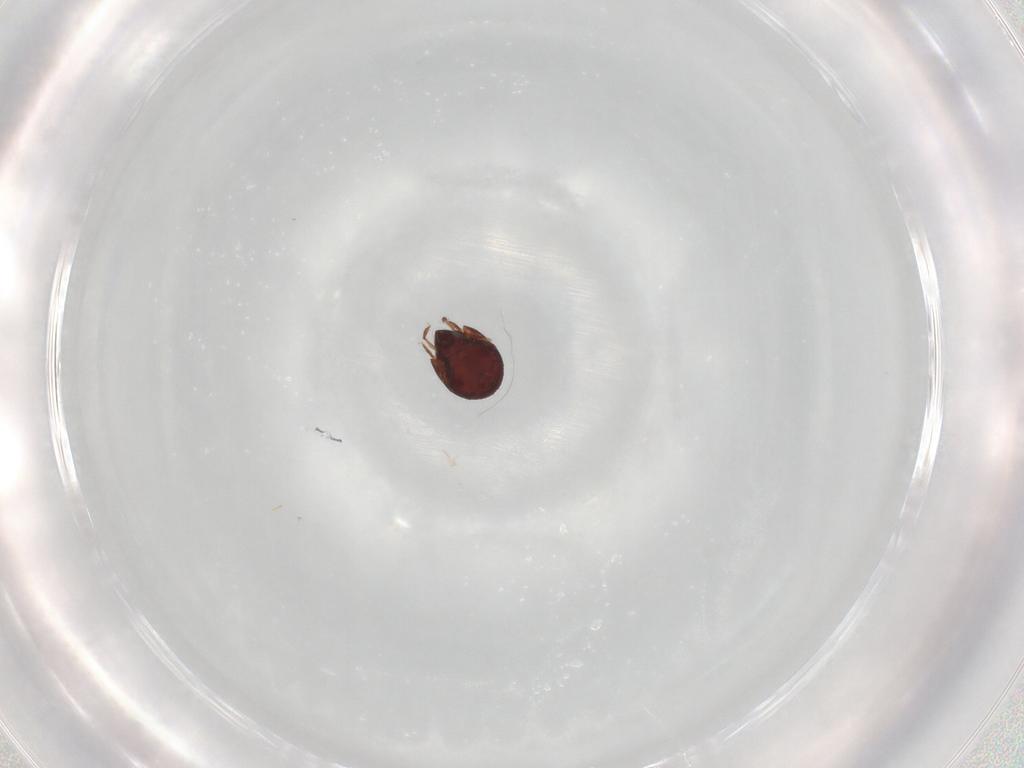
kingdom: Animalia
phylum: Arthropoda
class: Arachnida
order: Sarcoptiformes
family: Humerobatidae
